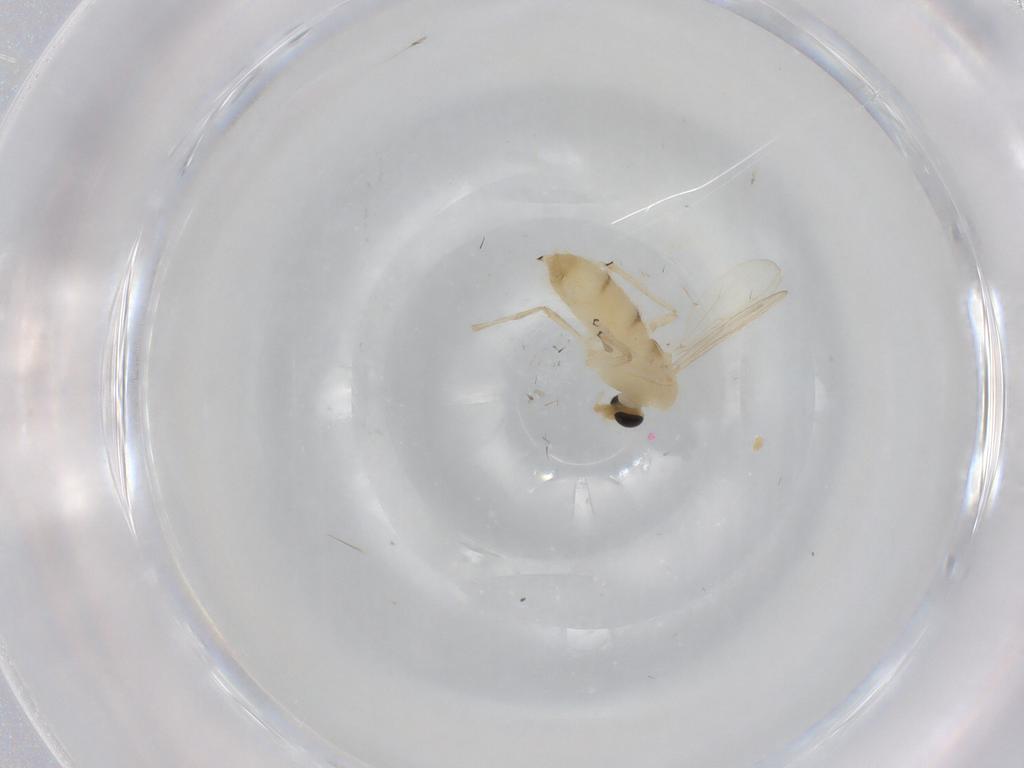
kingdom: Animalia
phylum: Arthropoda
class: Insecta
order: Diptera
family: Chironomidae
